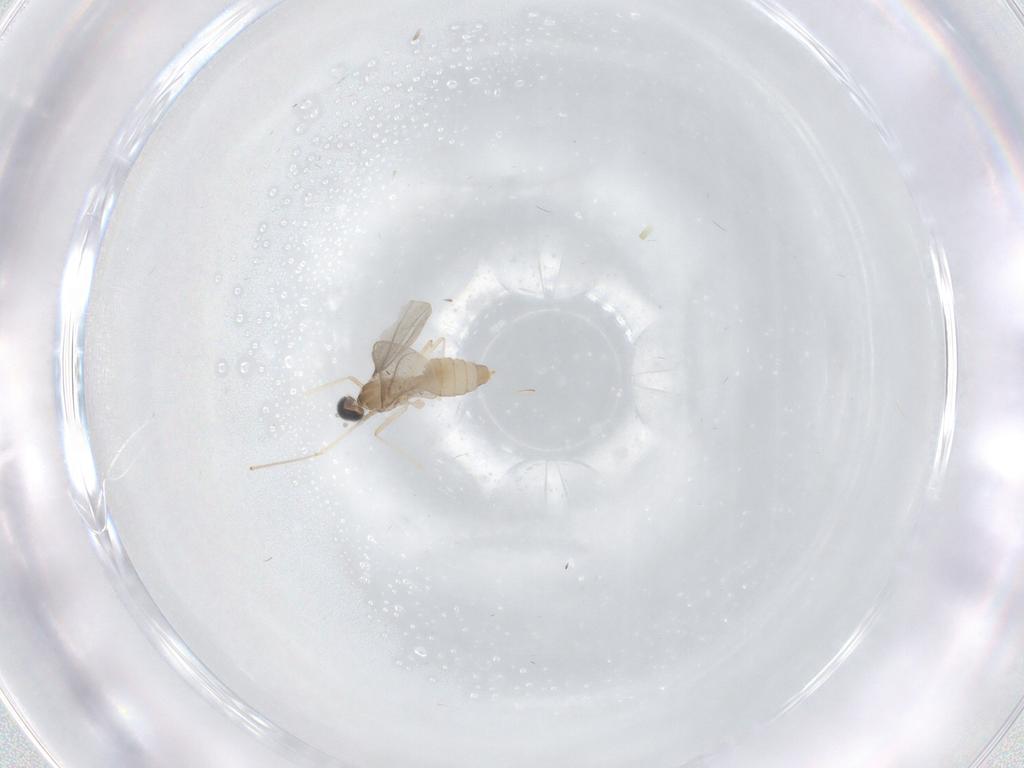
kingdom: Animalia
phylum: Arthropoda
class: Insecta
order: Diptera
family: Cecidomyiidae
